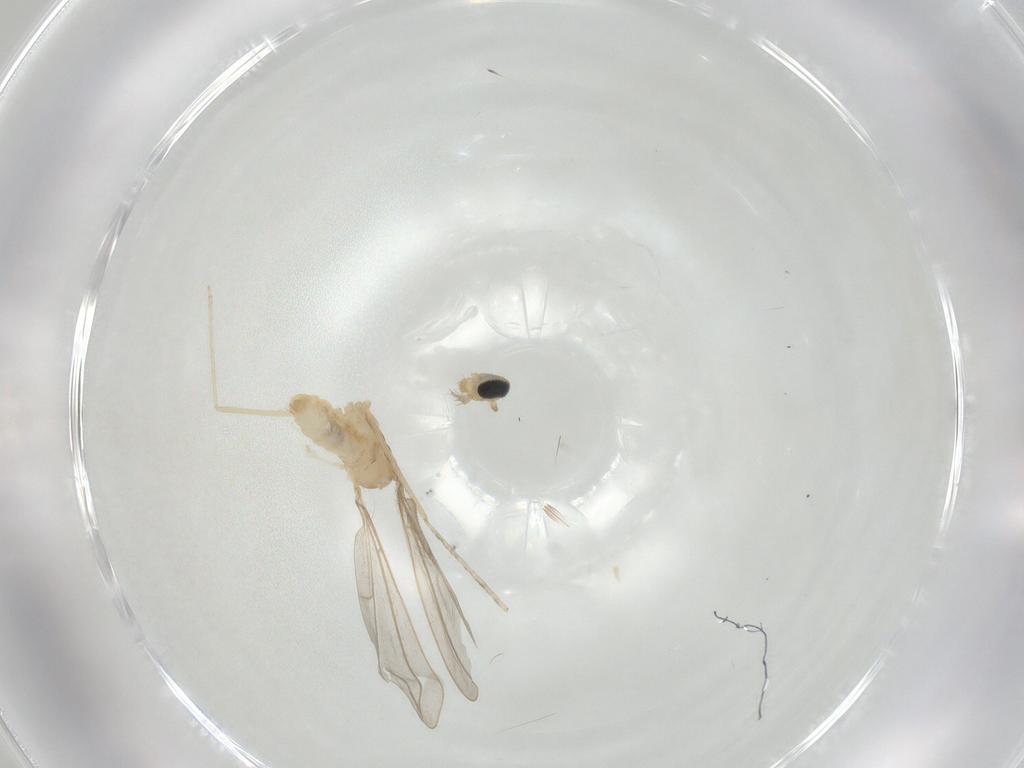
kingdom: Animalia
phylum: Arthropoda
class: Insecta
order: Diptera
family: Cecidomyiidae
